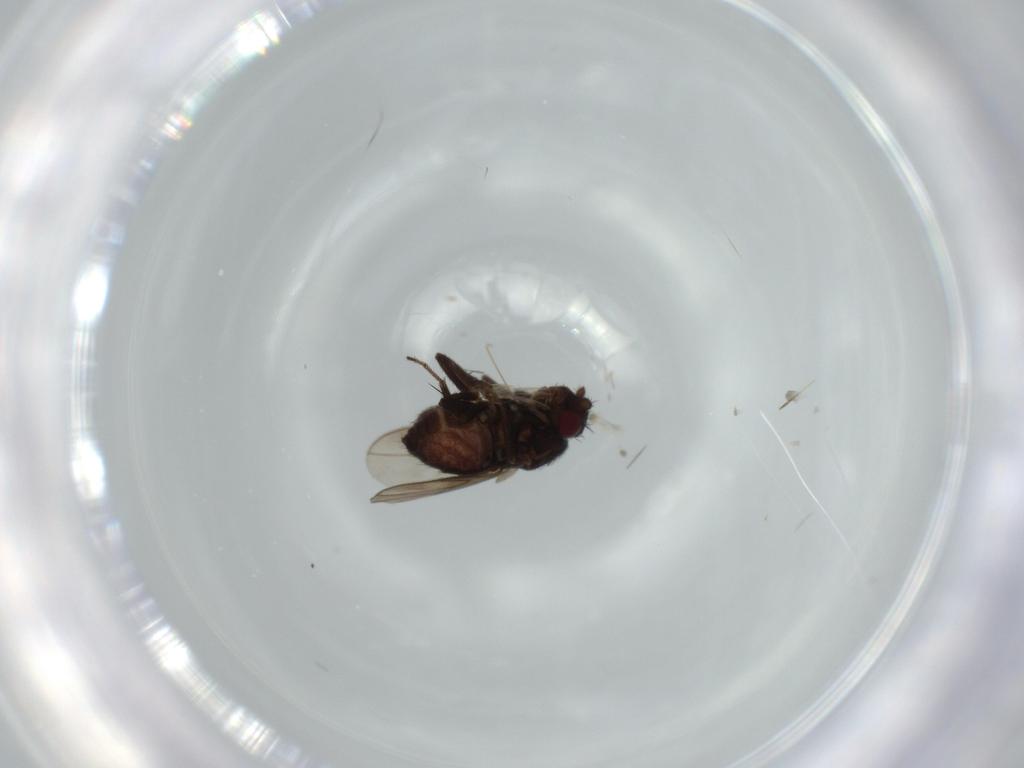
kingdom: Animalia
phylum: Arthropoda
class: Insecta
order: Diptera
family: Sphaeroceridae
